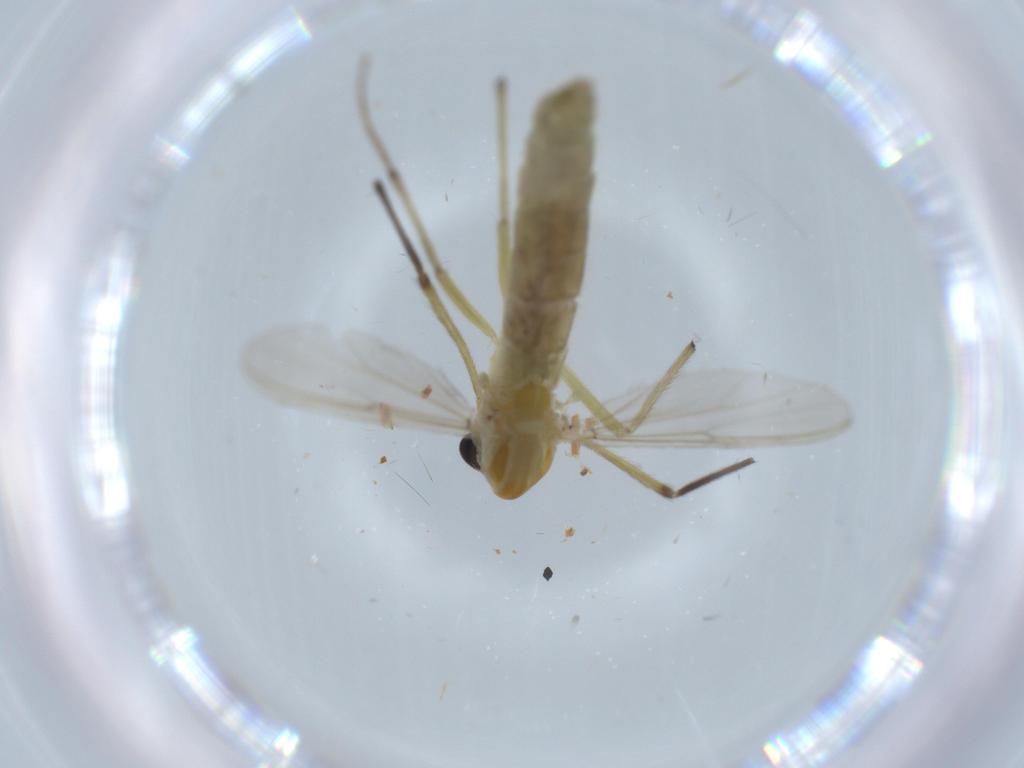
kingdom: Animalia
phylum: Arthropoda
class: Insecta
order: Diptera
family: Chironomidae
